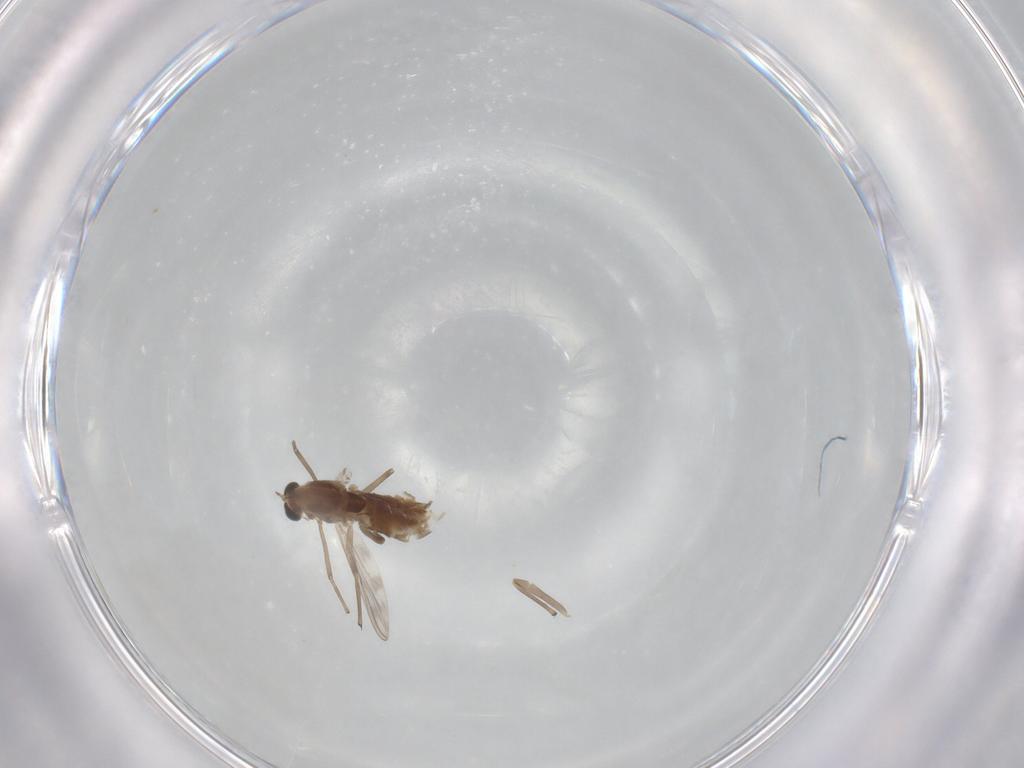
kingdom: Animalia
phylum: Arthropoda
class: Insecta
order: Diptera
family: Chironomidae
